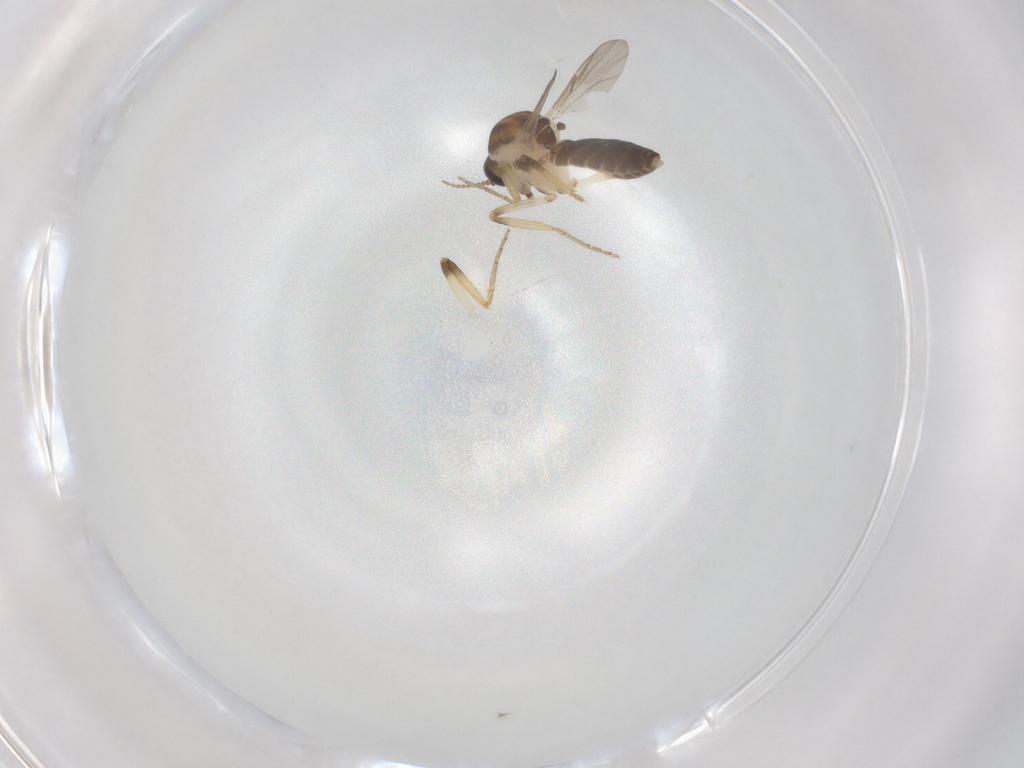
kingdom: Animalia
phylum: Arthropoda
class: Insecta
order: Diptera
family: Ceratopogonidae
